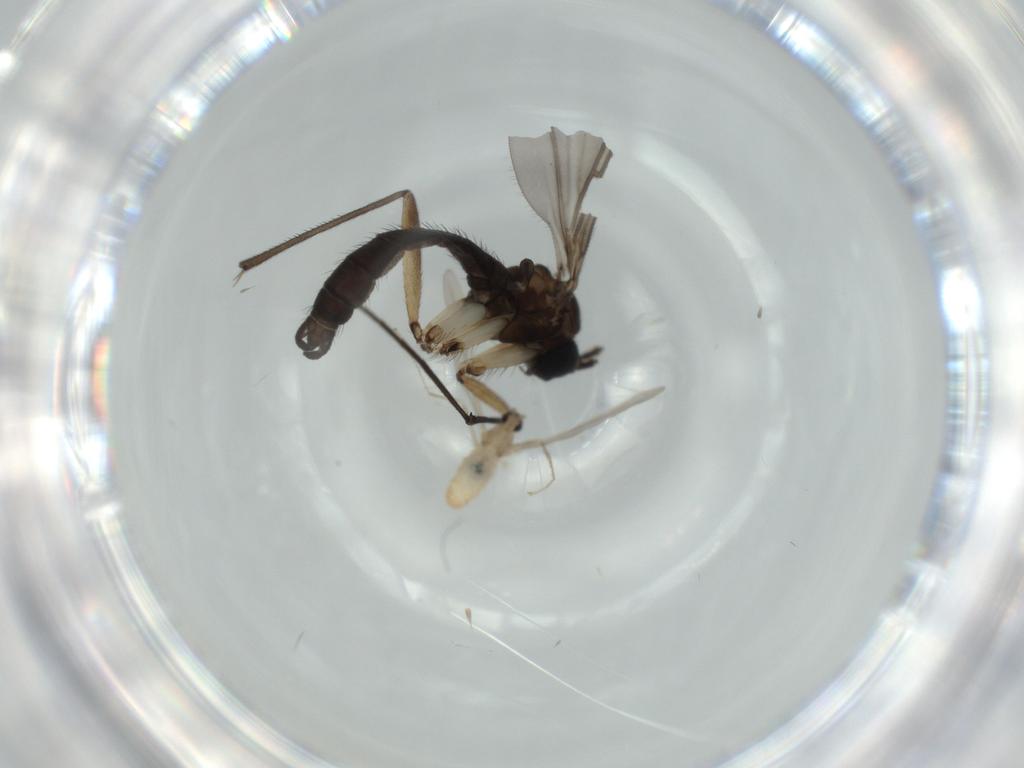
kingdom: Animalia
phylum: Arthropoda
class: Insecta
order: Diptera
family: Sciaridae
